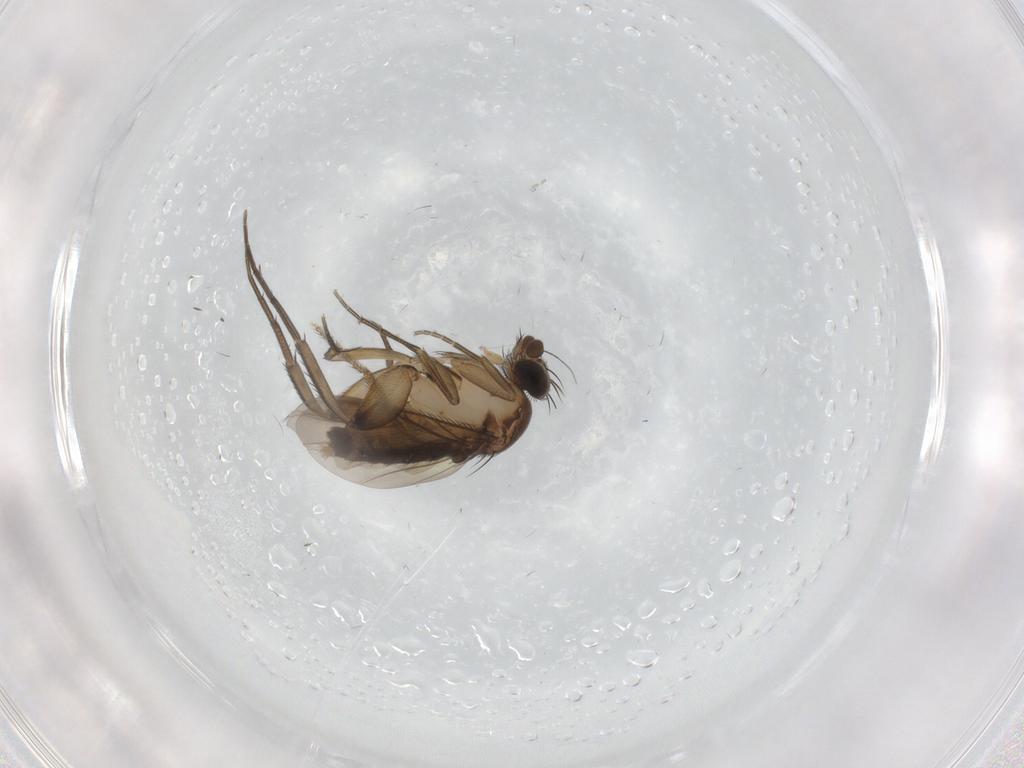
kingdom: Animalia
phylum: Arthropoda
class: Insecta
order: Diptera
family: Phoridae
